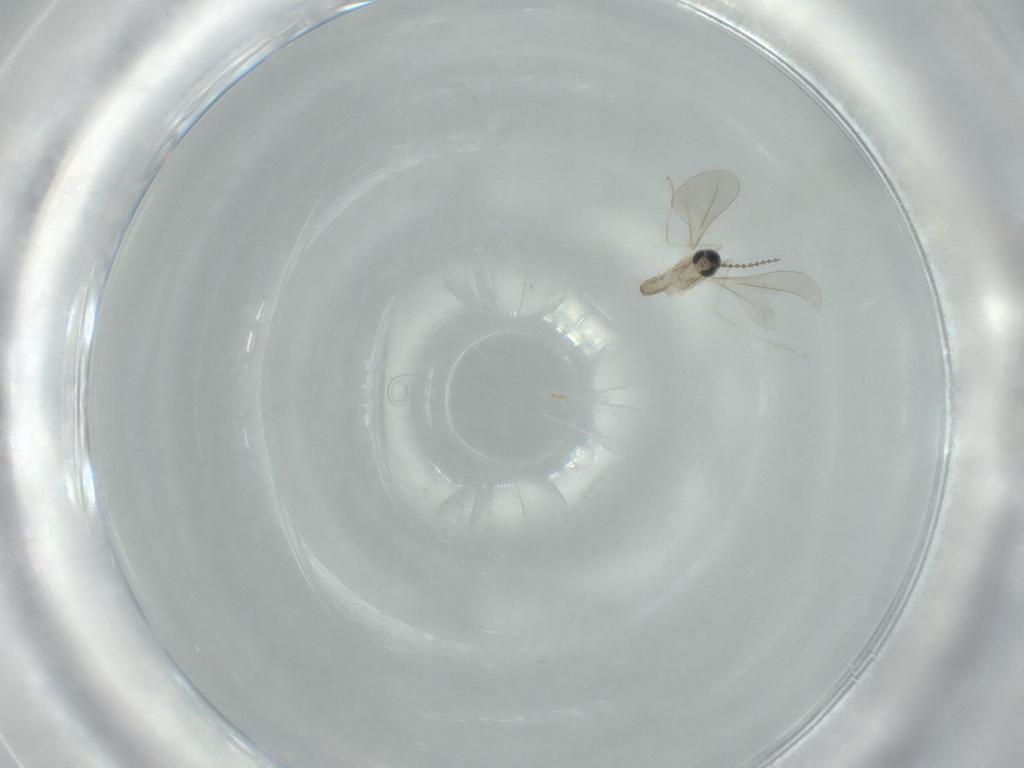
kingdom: Animalia
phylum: Arthropoda
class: Insecta
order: Diptera
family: Cecidomyiidae
